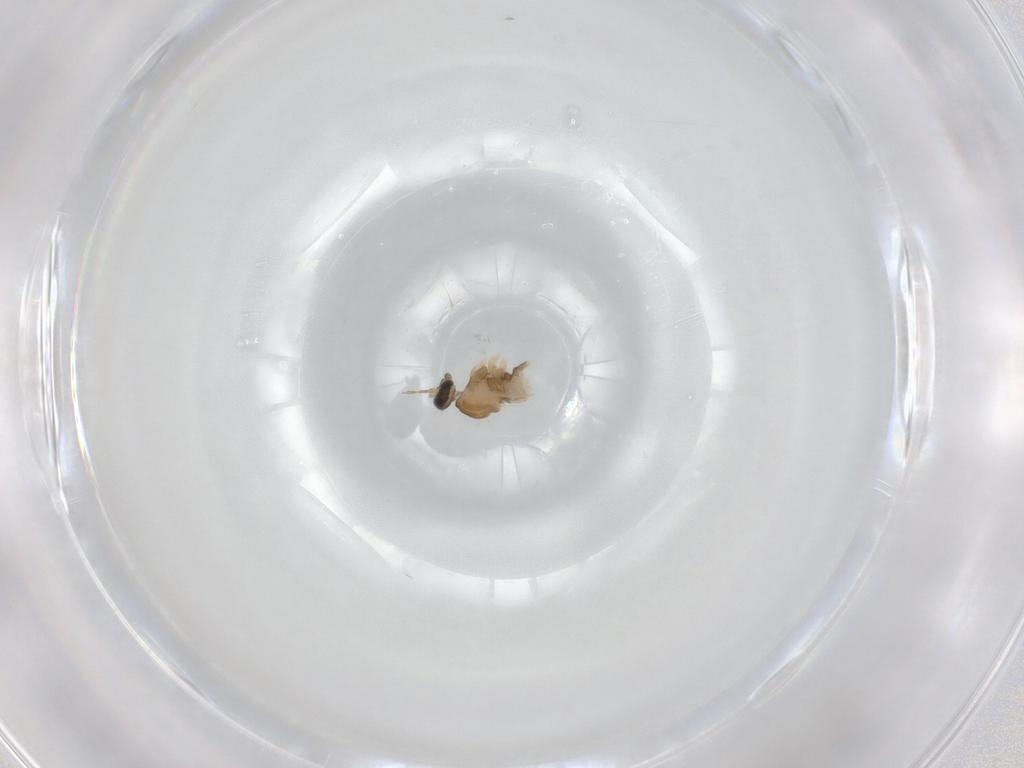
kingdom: Animalia
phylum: Arthropoda
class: Insecta
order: Diptera
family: Cecidomyiidae
